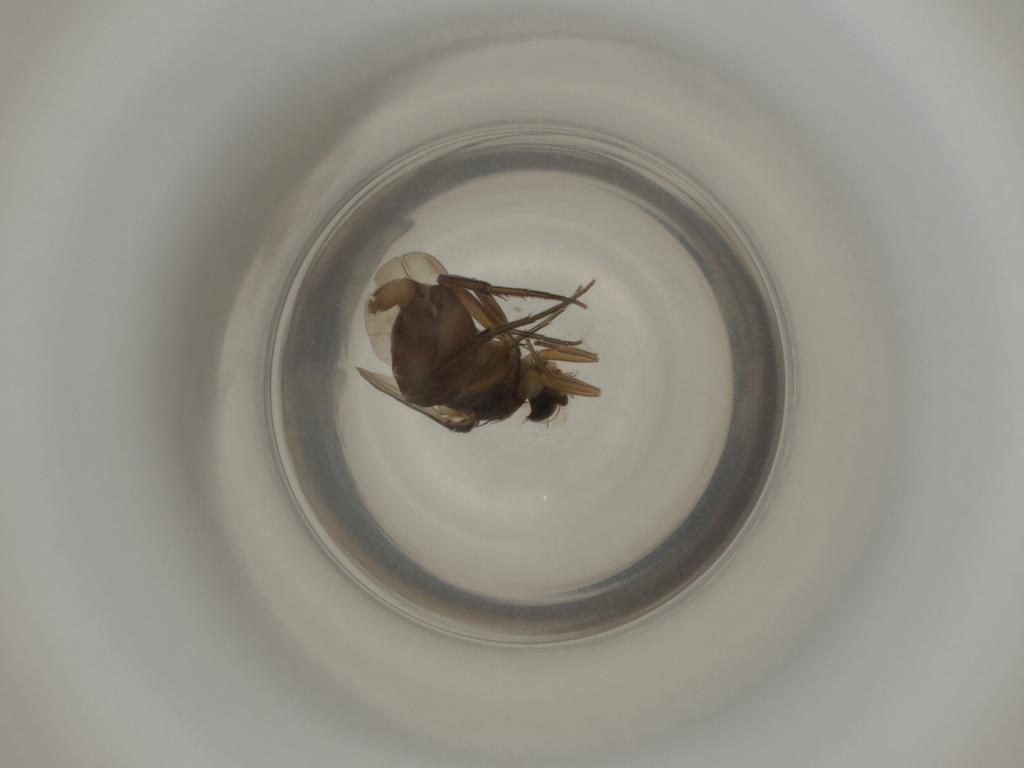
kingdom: Animalia
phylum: Arthropoda
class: Insecta
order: Diptera
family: Phoridae
